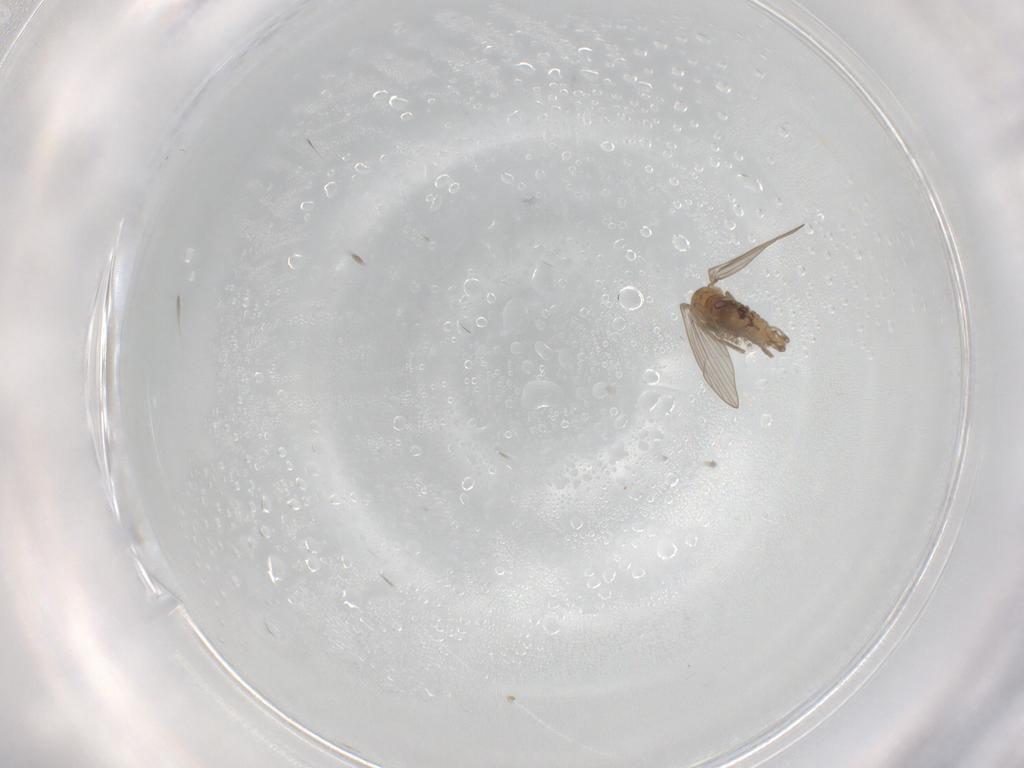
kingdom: Animalia
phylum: Arthropoda
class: Insecta
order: Diptera
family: Psychodidae
